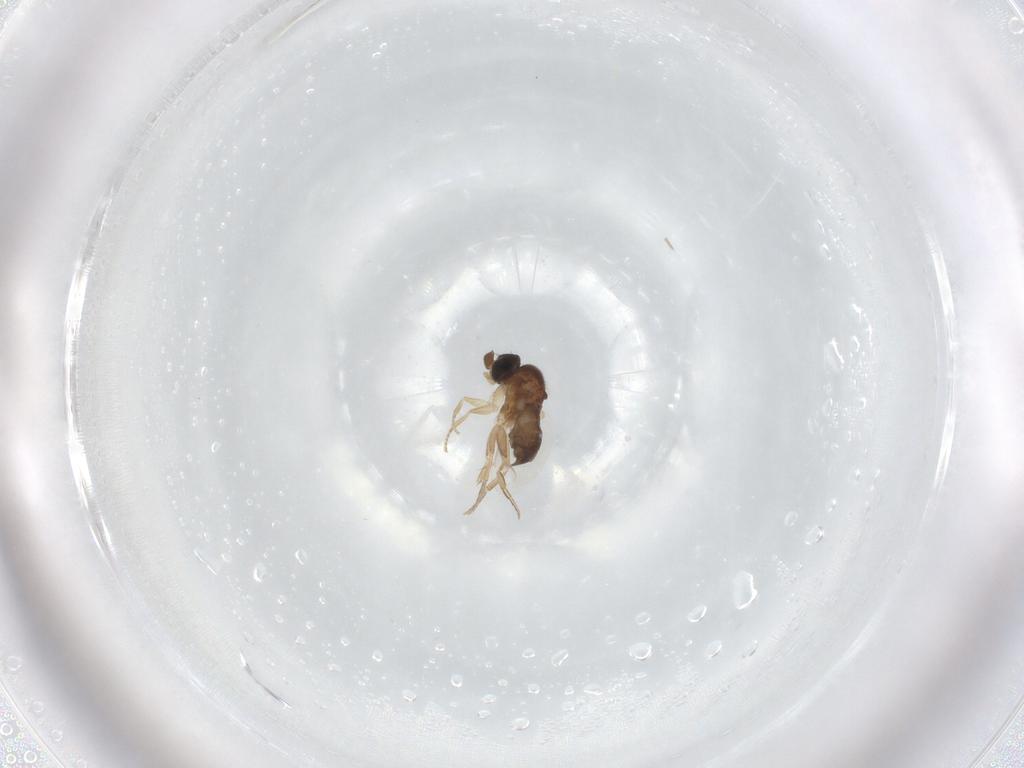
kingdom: Animalia
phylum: Arthropoda
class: Insecta
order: Diptera
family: Phoridae
